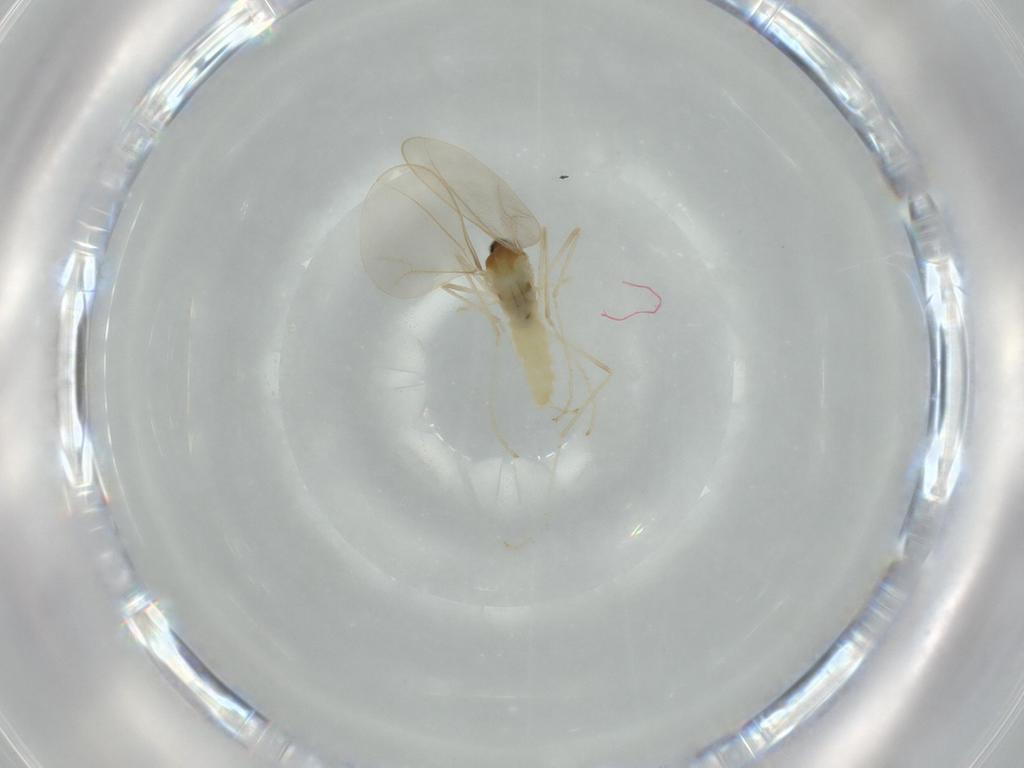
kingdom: Animalia
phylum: Arthropoda
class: Insecta
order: Diptera
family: Cecidomyiidae
